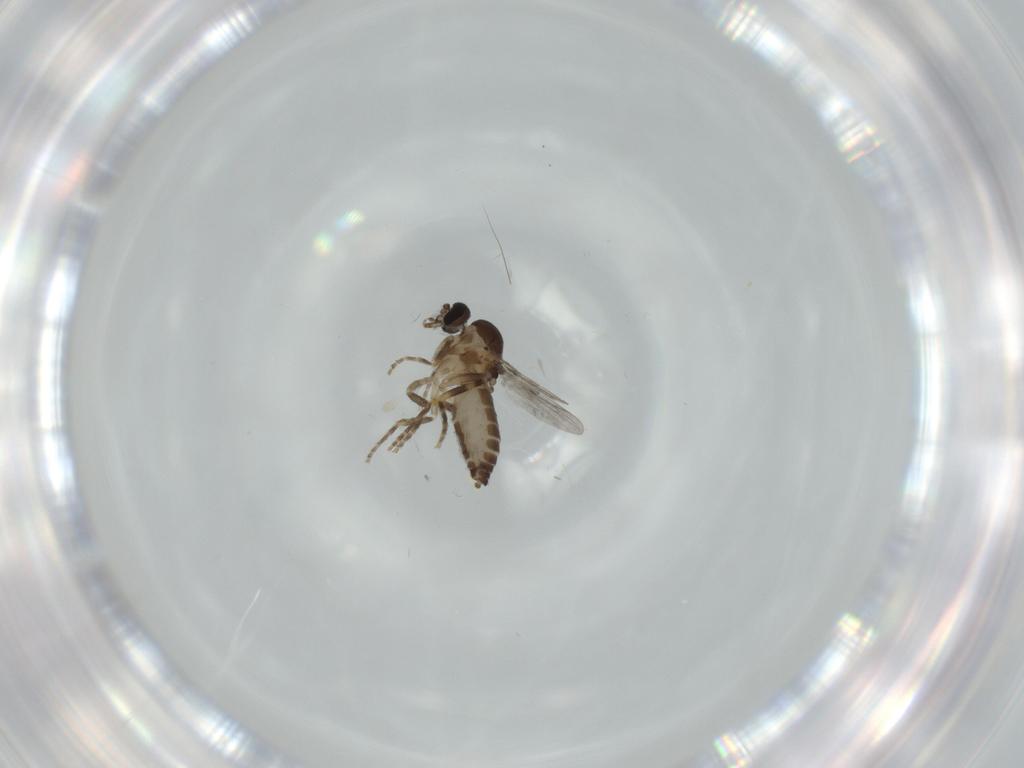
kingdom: Animalia
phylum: Arthropoda
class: Insecta
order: Diptera
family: Ceratopogonidae
